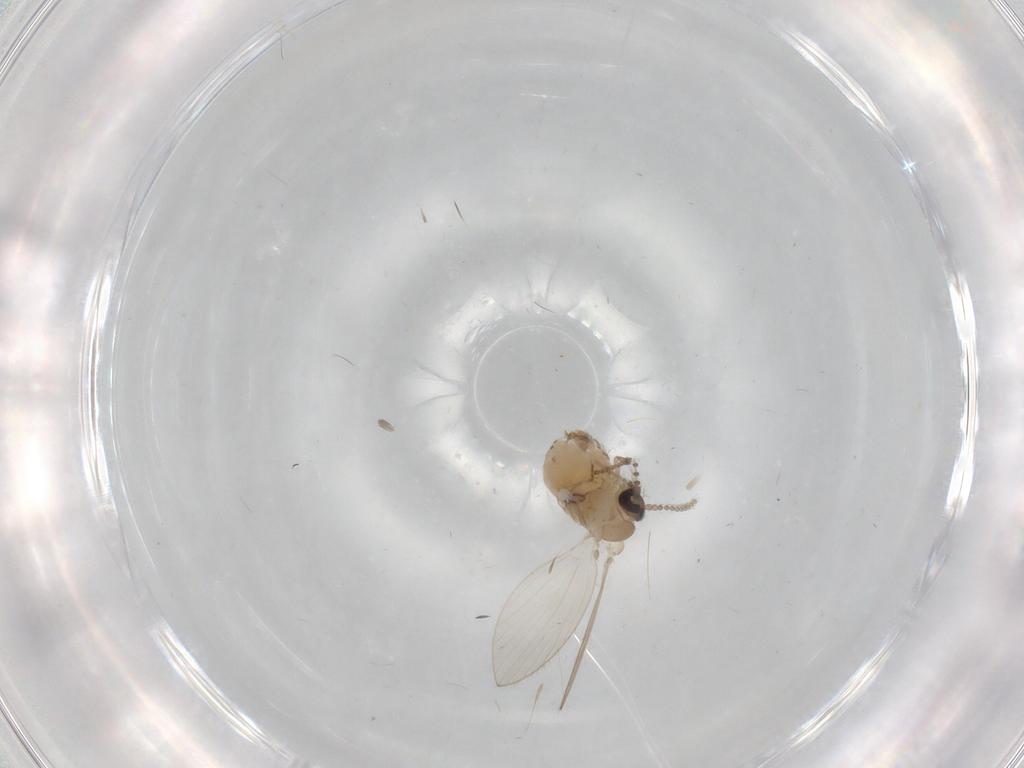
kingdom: Animalia
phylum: Arthropoda
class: Insecta
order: Diptera
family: Psychodidae
